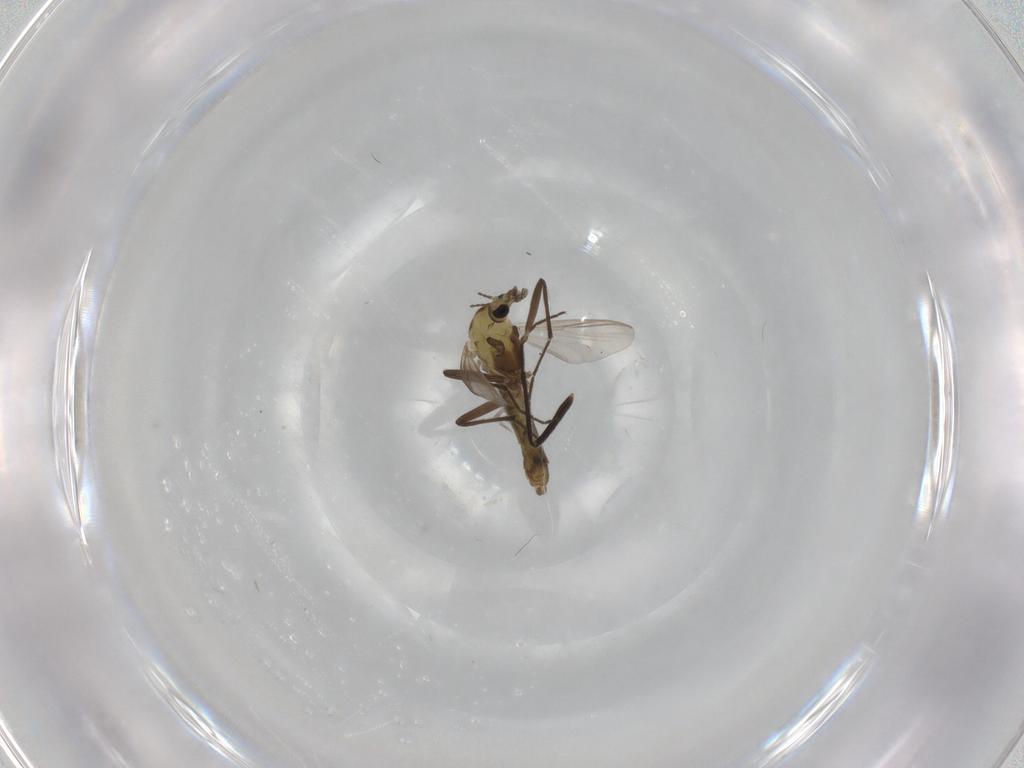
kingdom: Animalia
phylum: Arthropoda
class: Insecta
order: Diptera
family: Chironomidae
